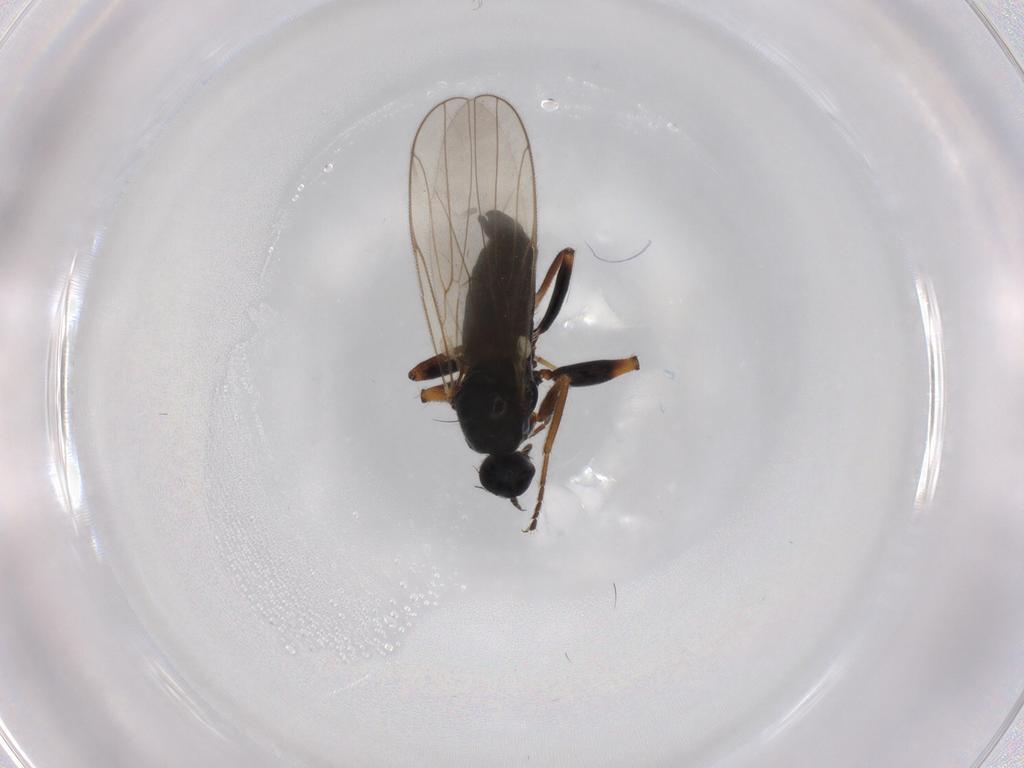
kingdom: Animalia
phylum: Arthropoda
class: Insecta
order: Diptera
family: Chironomidae
